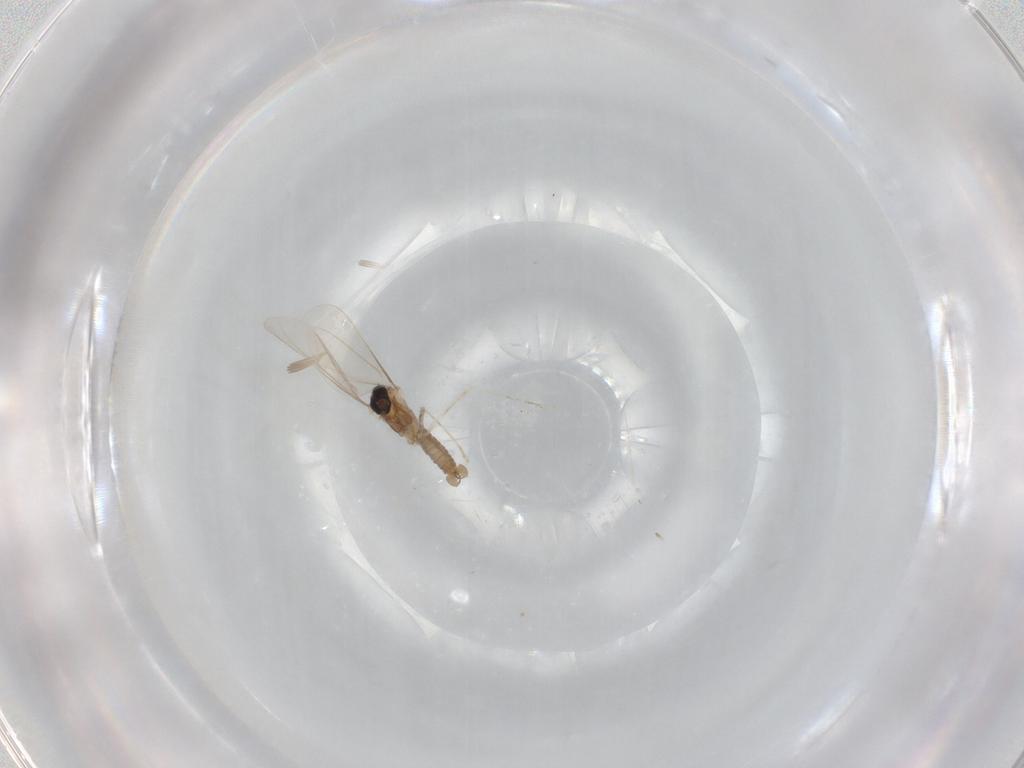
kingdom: Animalia
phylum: Arthropoda
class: Insecta
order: Diptera
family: Cecidomyiidae
